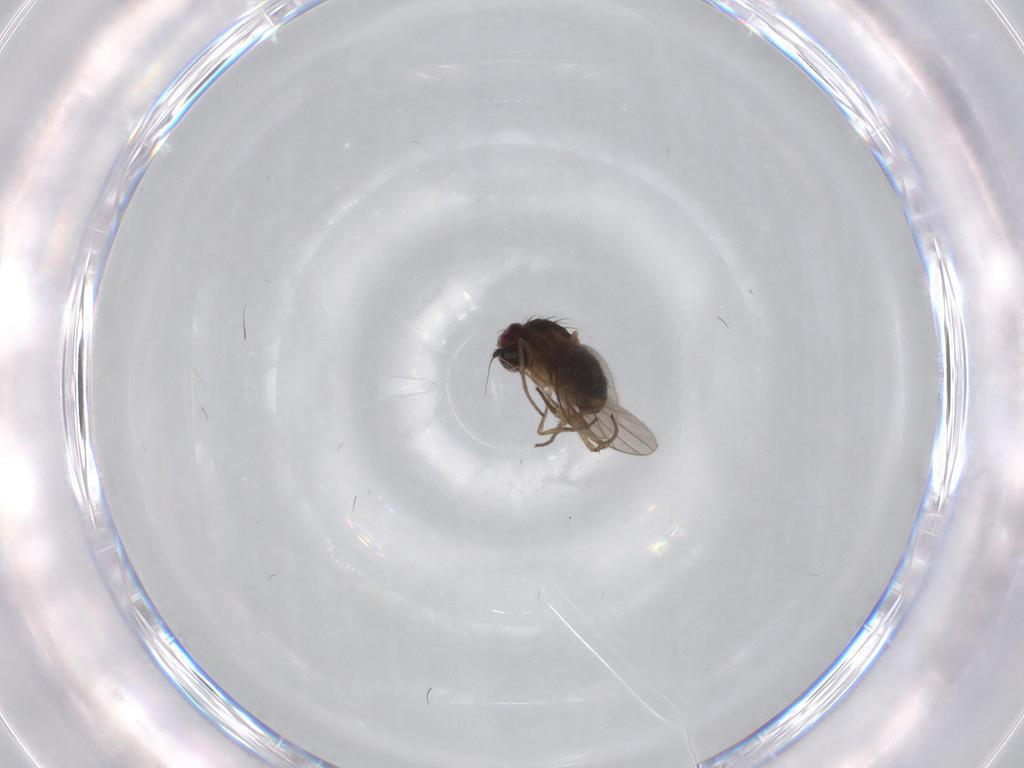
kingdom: Animalia
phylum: Arthropoda
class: Insecta
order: Diptera
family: Dolichopodidae
